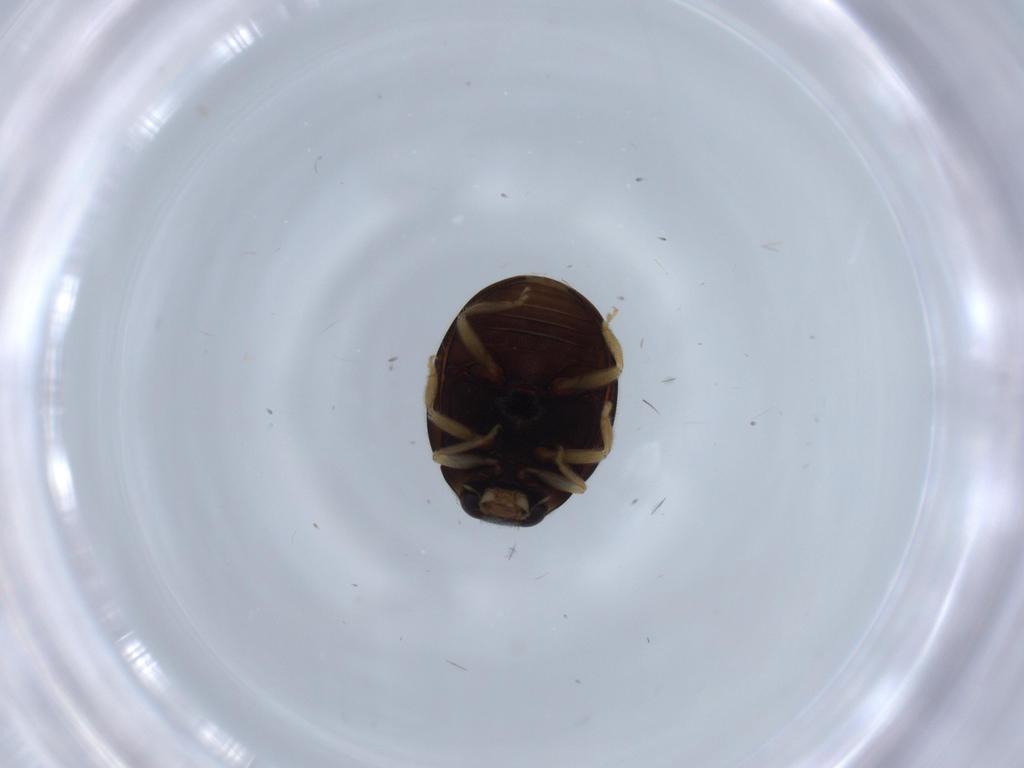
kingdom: Animalia
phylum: Arthropoda
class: Insecta
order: Coleoptera
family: Coccinellidae
